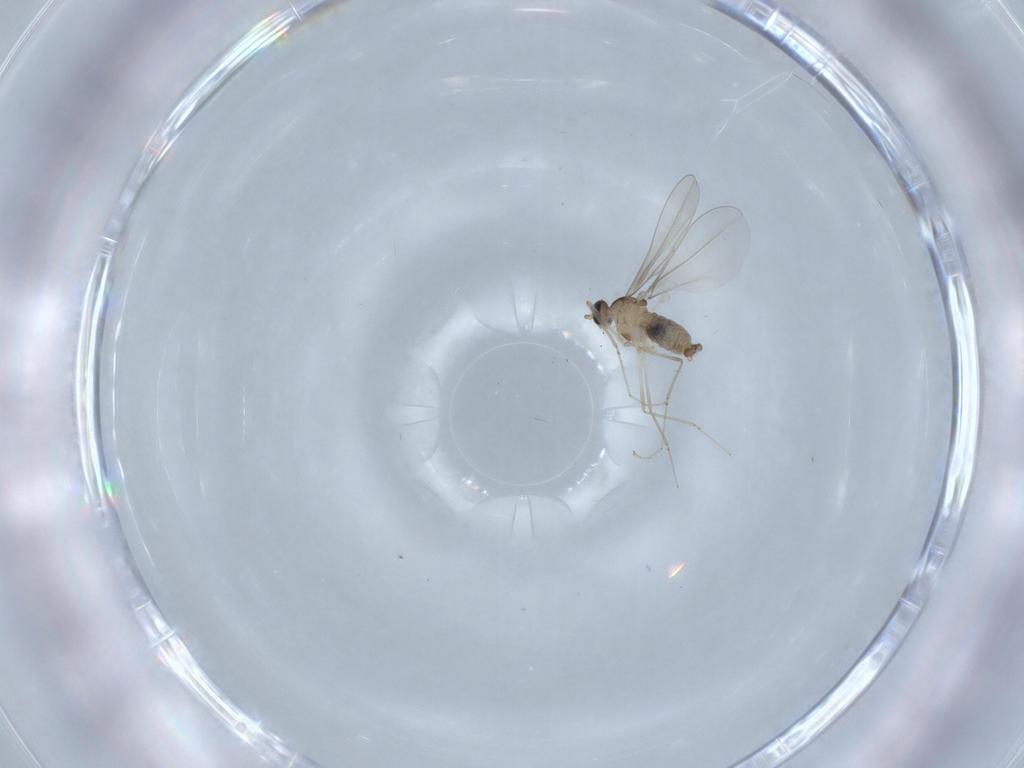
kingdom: Animalia
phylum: Arthropoda
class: Insecta
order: Diptera
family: Cecidomyiidae
